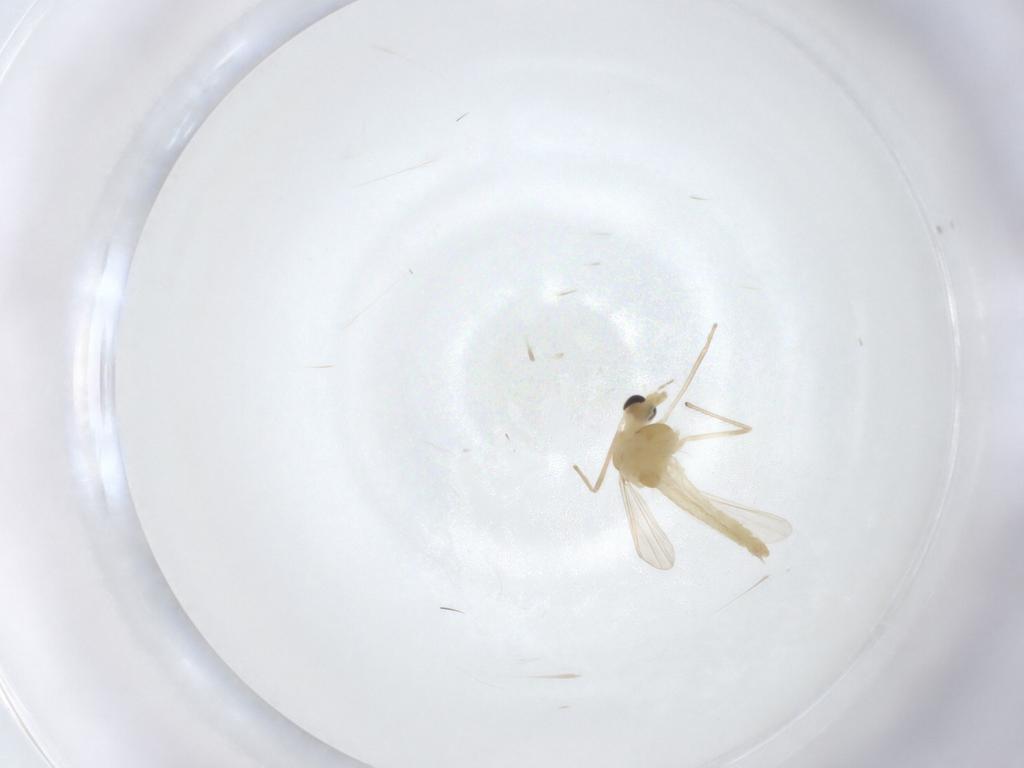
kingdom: Animalia
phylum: Arthropoda
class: Insecta
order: Diptera
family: Chironomidae
